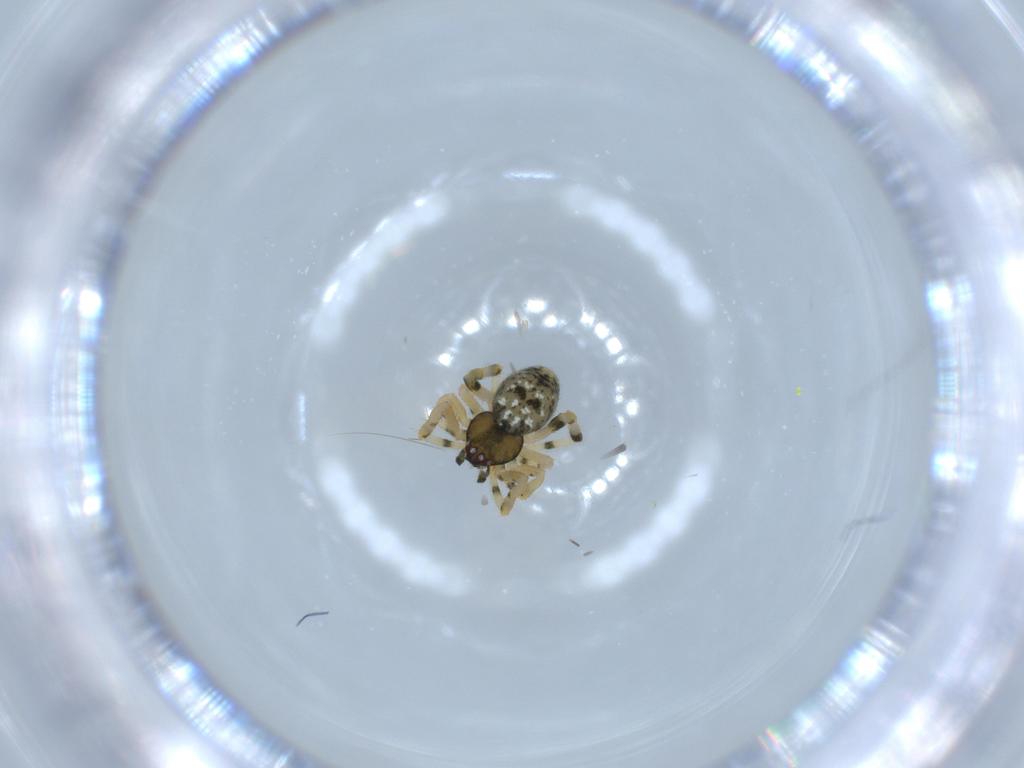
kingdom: Animalia
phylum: Arthropoda
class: Arachnida
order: Araneae
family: Theridiidae
